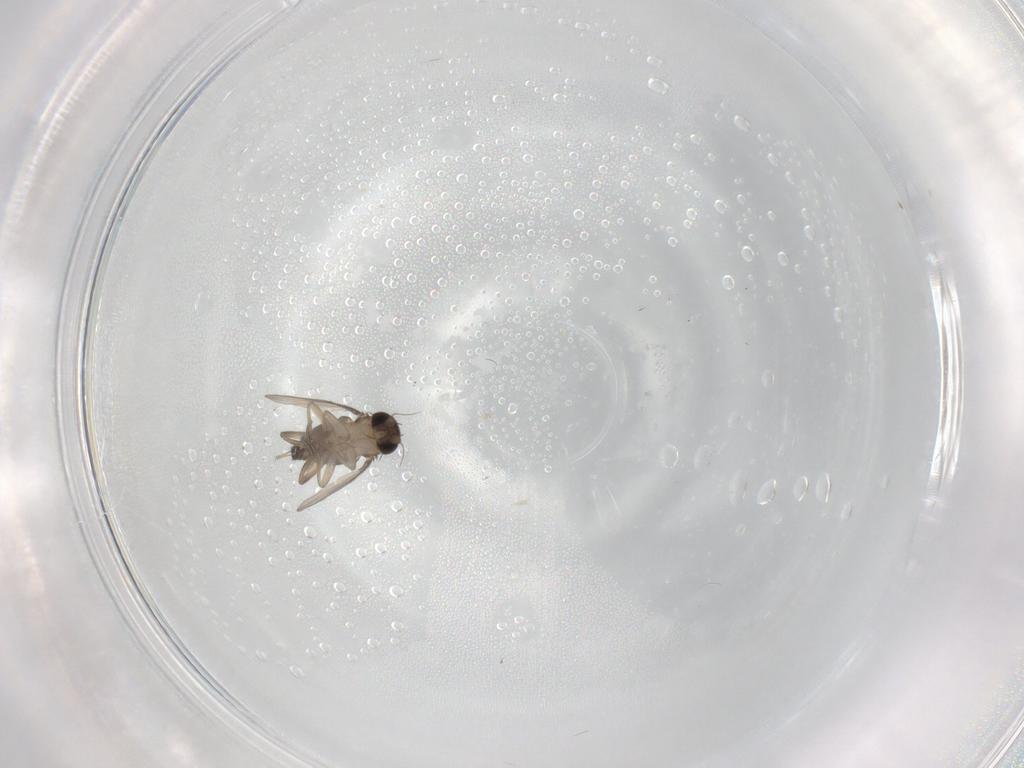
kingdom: Animalia
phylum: Arthropoda
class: Insecta
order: Diptera
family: Phoridae
